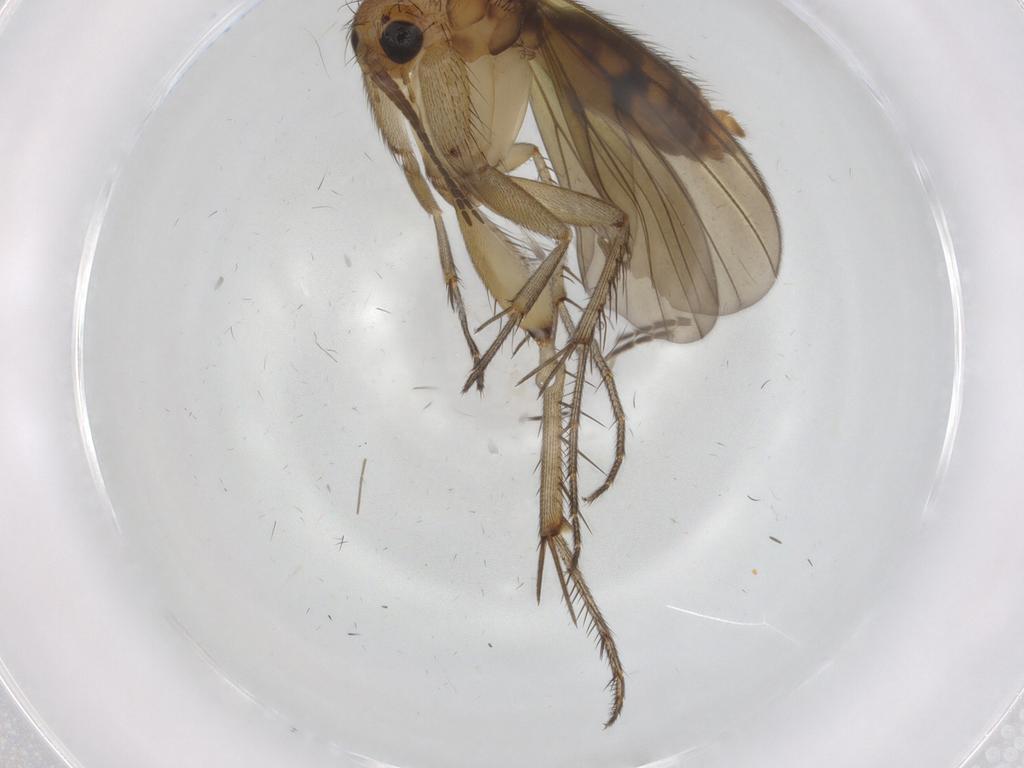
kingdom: Animalia
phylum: Arthropoda
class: Insecta
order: Diptera
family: Mycetophilidae
